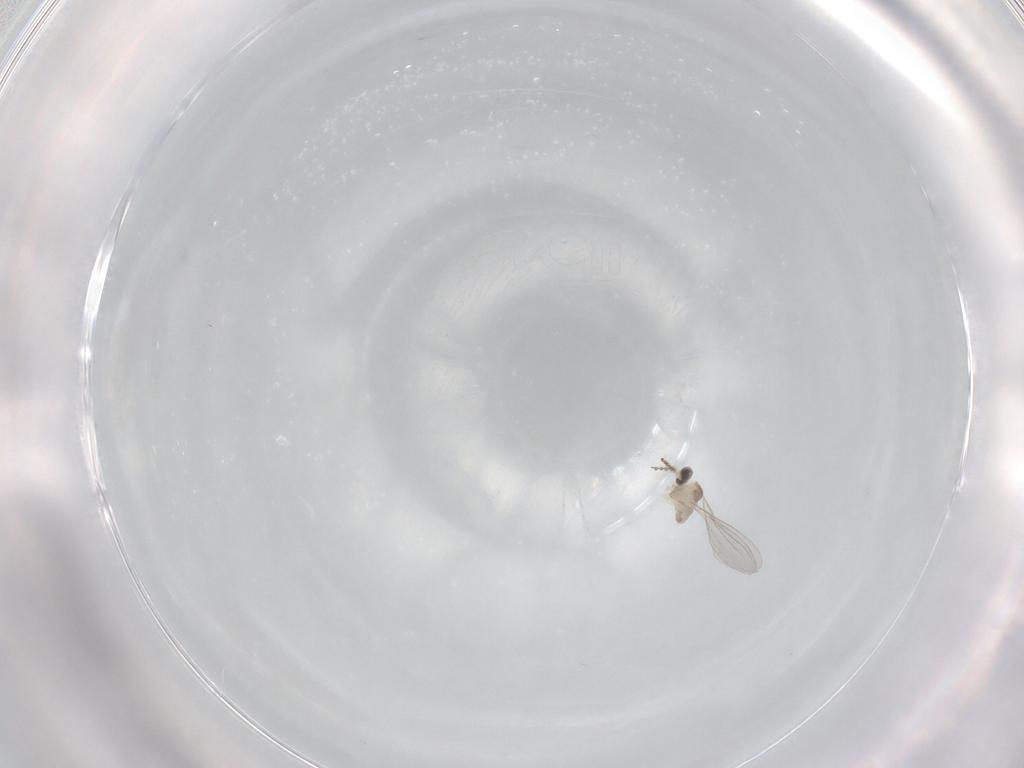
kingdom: Animalia
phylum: Arthropoda
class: Insecta
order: Diptera
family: Cecidomyiidae
